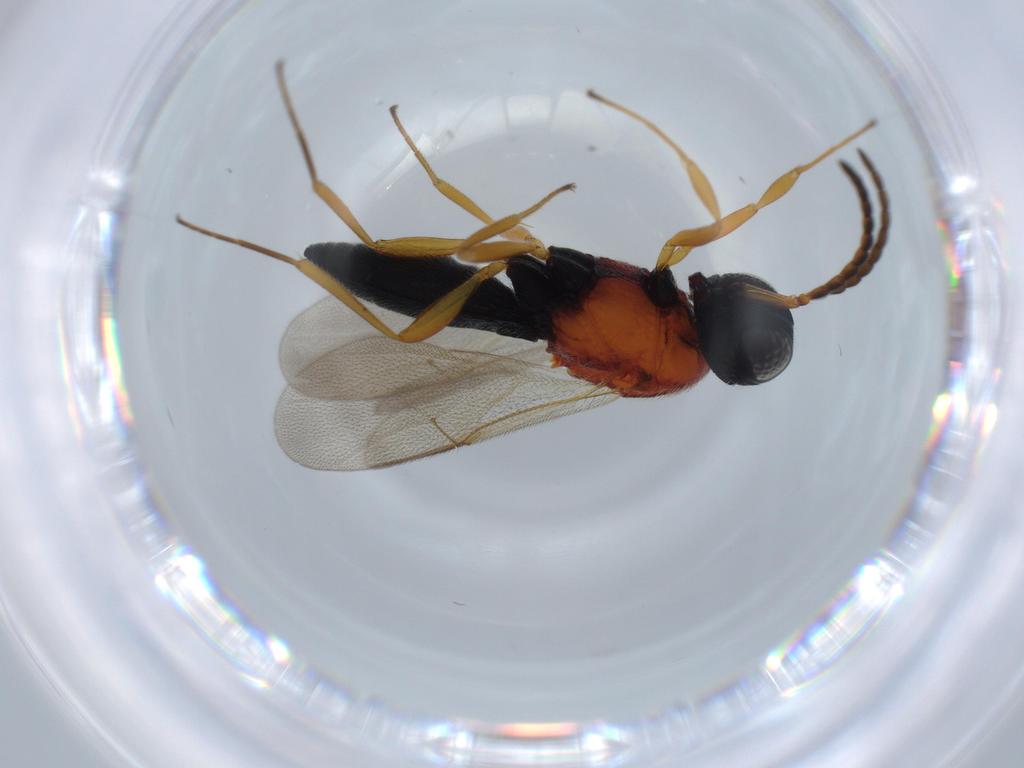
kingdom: Animalia
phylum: Arthropoda
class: Insecta
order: Hymenoptera
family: Scelionidae
